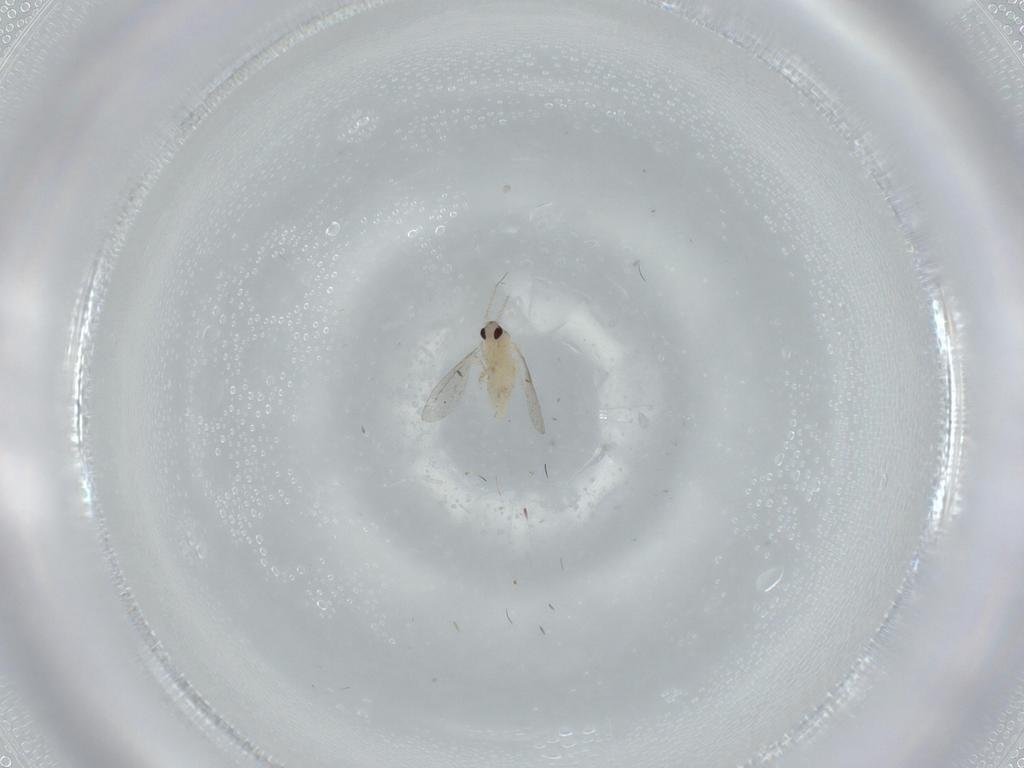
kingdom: Animalia
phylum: Arthropoda
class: Insecta
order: Diptera
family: Cecidomyiidae
